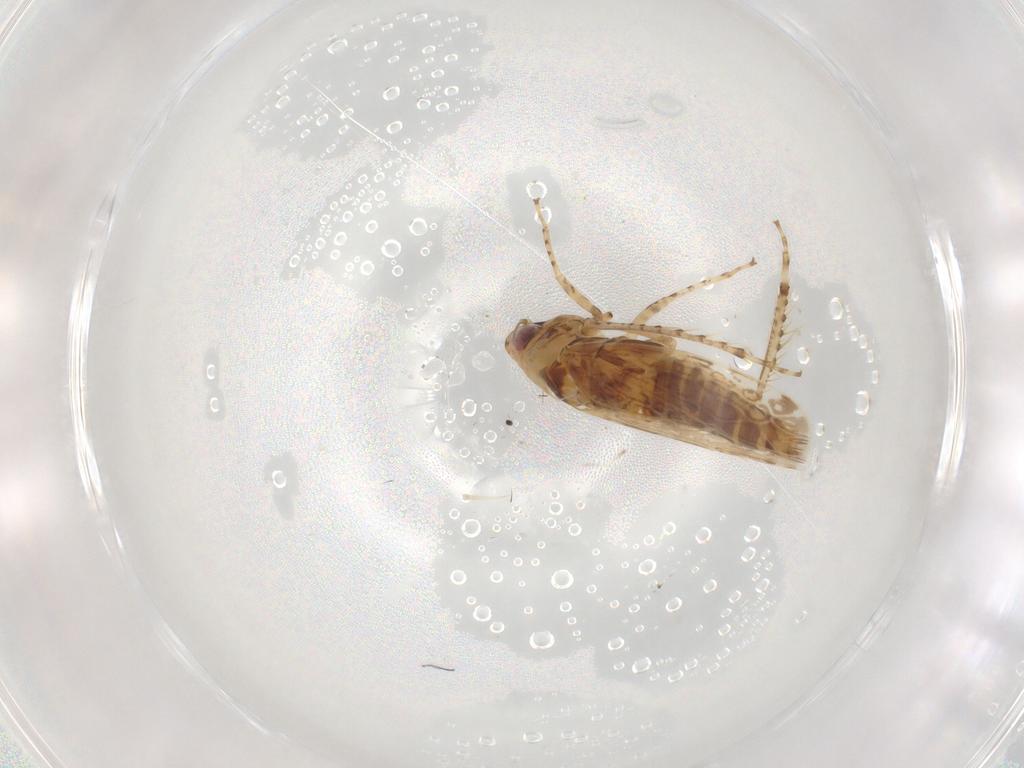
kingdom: Animalia
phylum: Arthropoda
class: Insecta
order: Hemiptera
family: Cicadellidae
